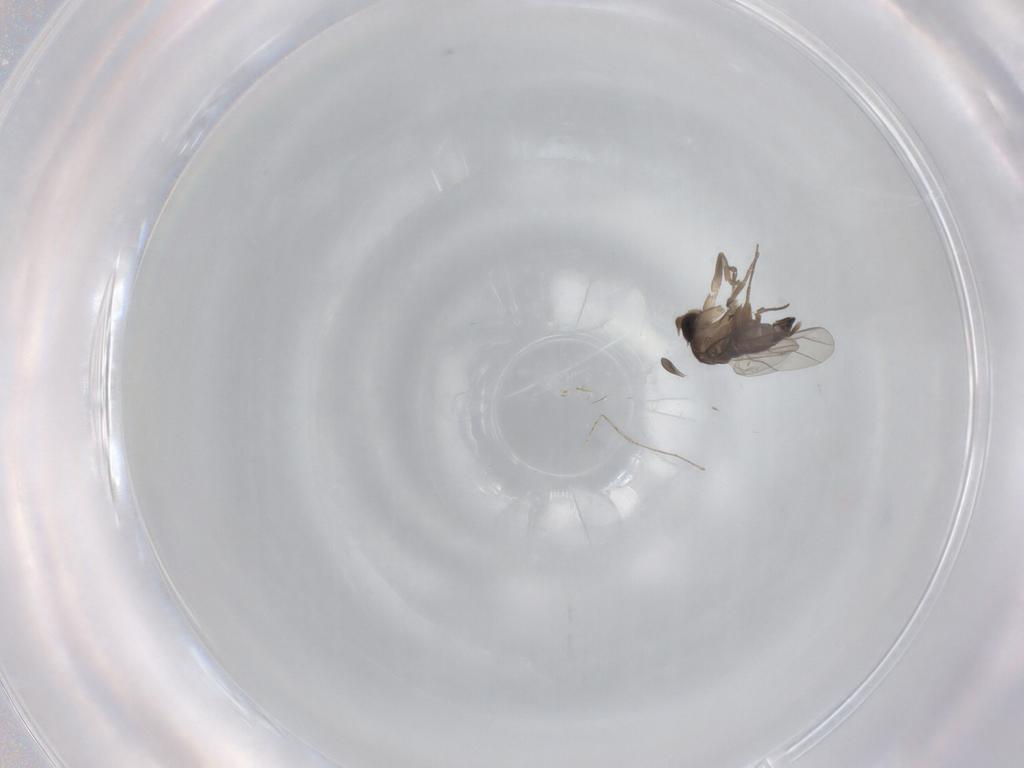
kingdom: Animalia
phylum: Arthropoda
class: Insecta
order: Diptera
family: Phoridae
